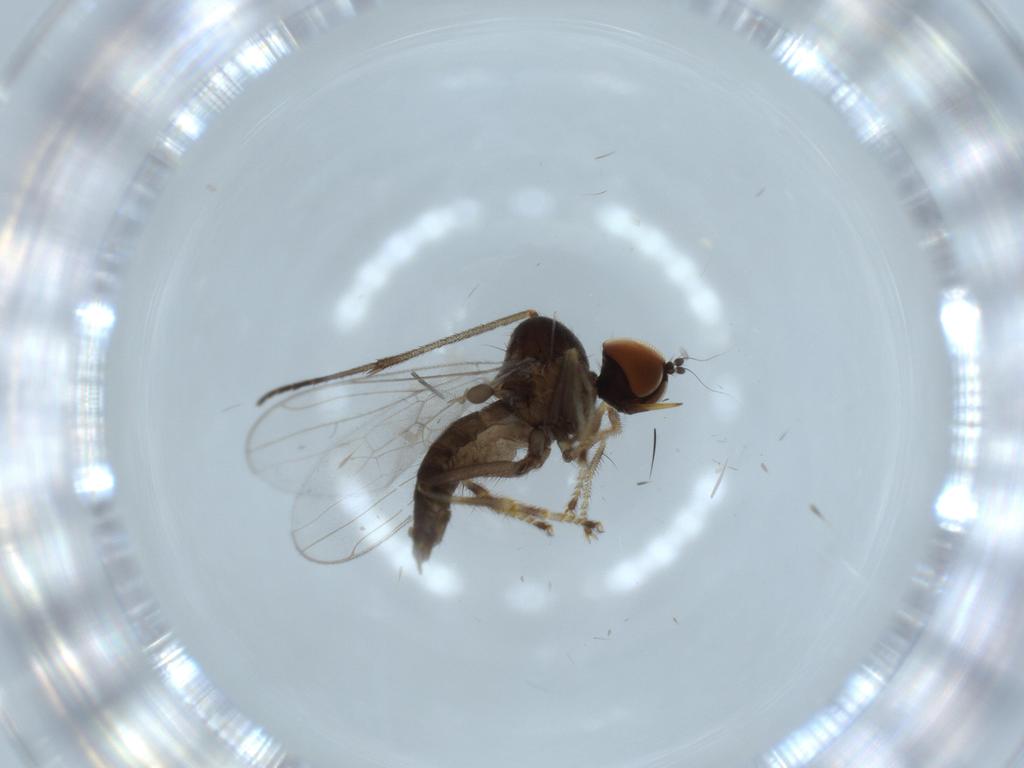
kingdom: Animalia
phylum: Arthropoda
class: Insecta
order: Diptera
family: Hybotidae
